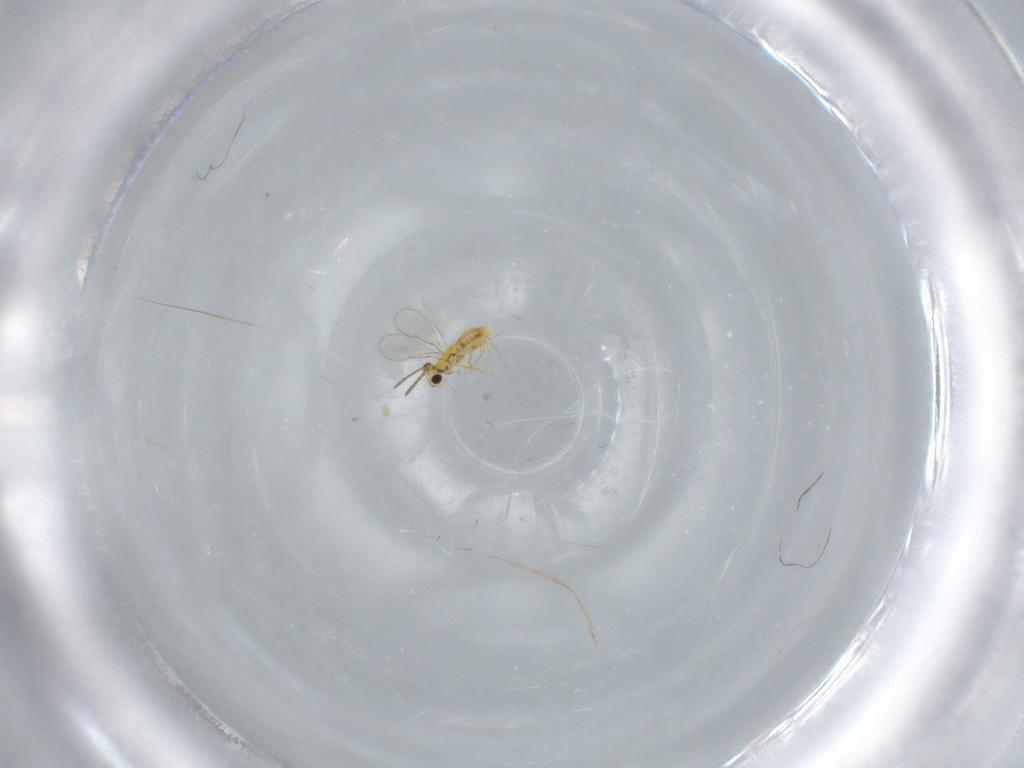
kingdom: Animalia
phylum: Arthropoda
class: Insecta
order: Hymenoptera
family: Aphelinidae
